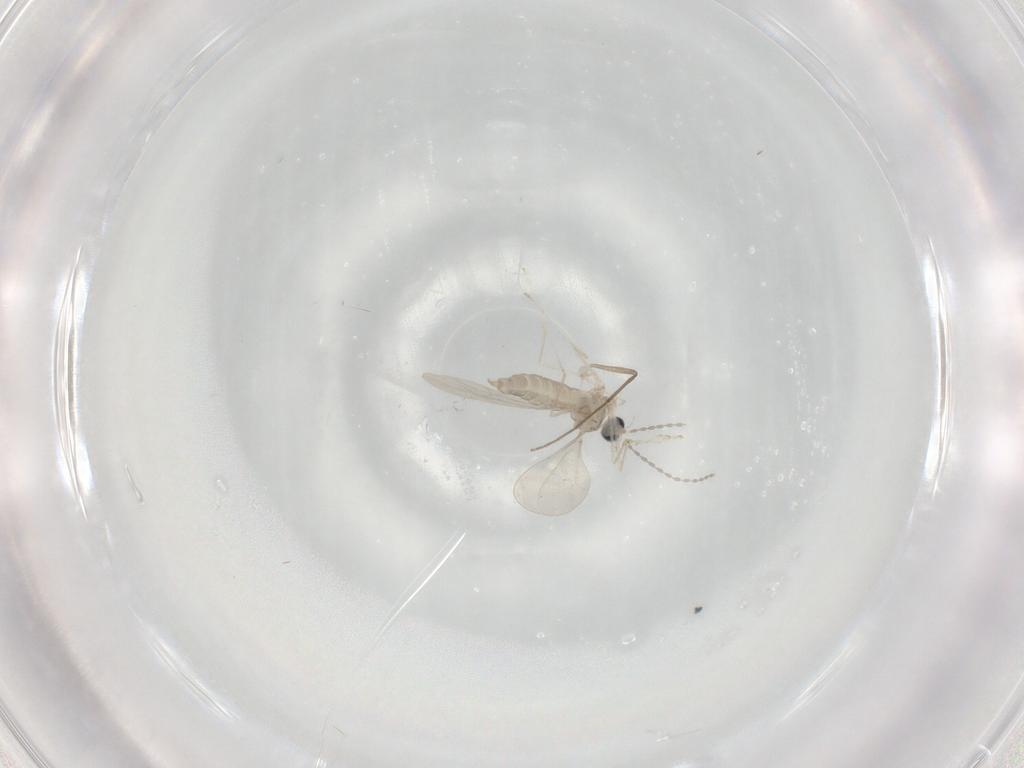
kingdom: Animalia
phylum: Arthropoda
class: Insecta
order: Diptera
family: Cecidomyiidae
